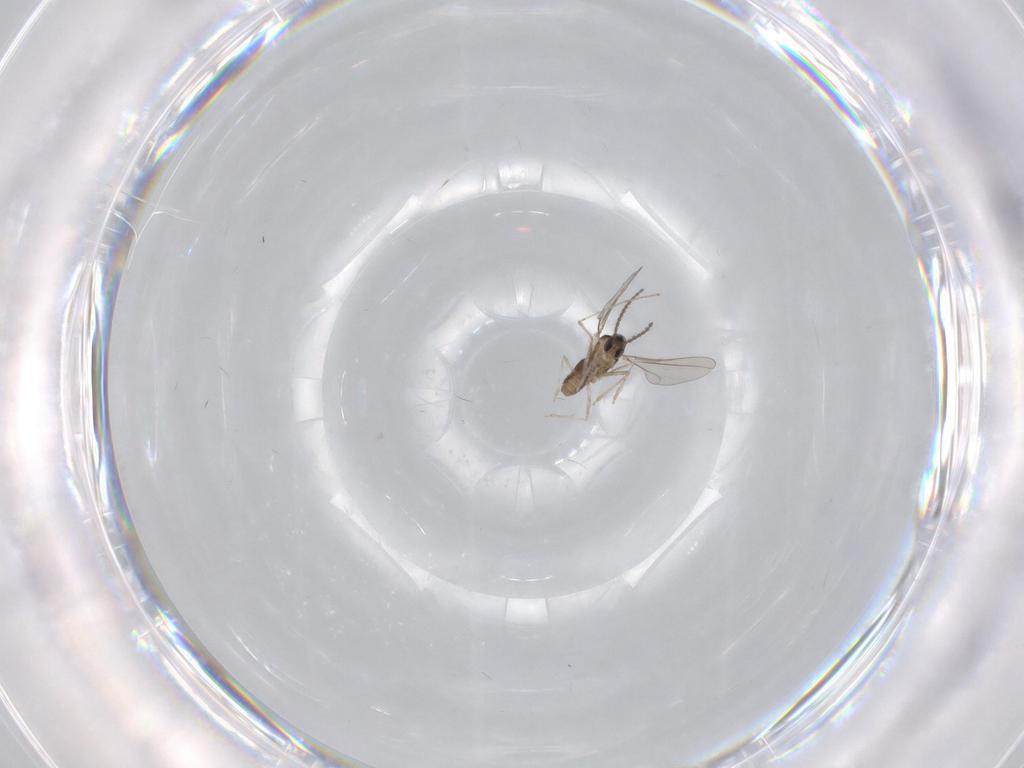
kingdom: Animalia
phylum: Arthropoda
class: Insecta
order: Diptera
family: Cecidomyiidae
